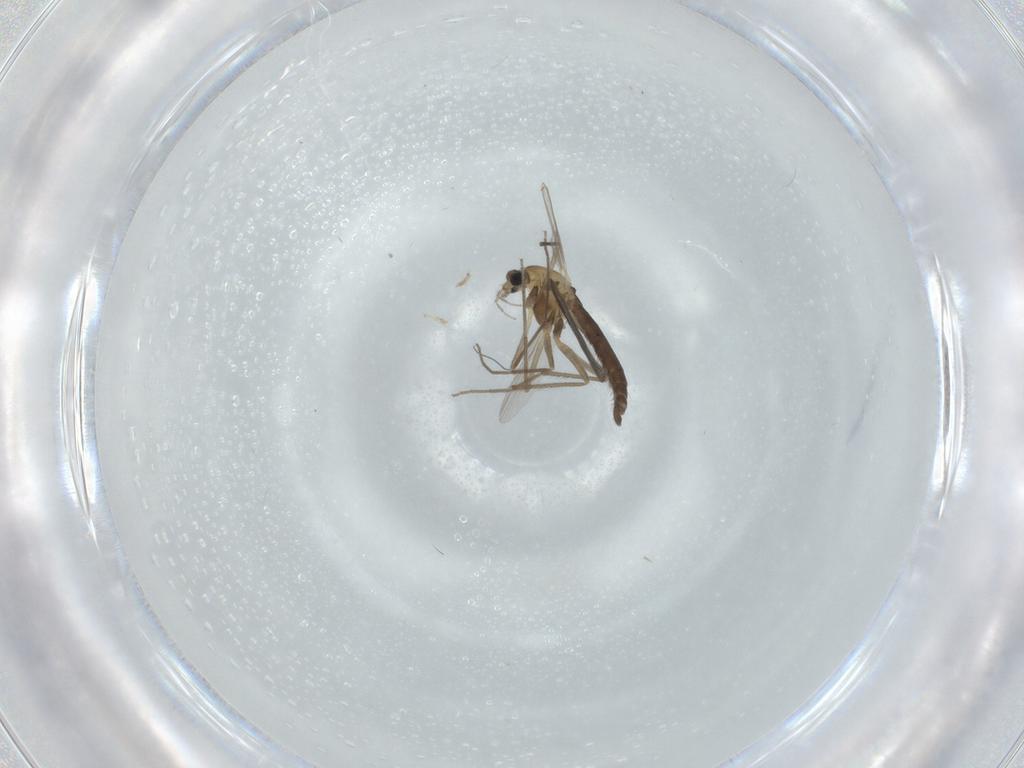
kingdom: Animalia
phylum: Arthropoda
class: Insecta
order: Diptera
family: Chironomidae
